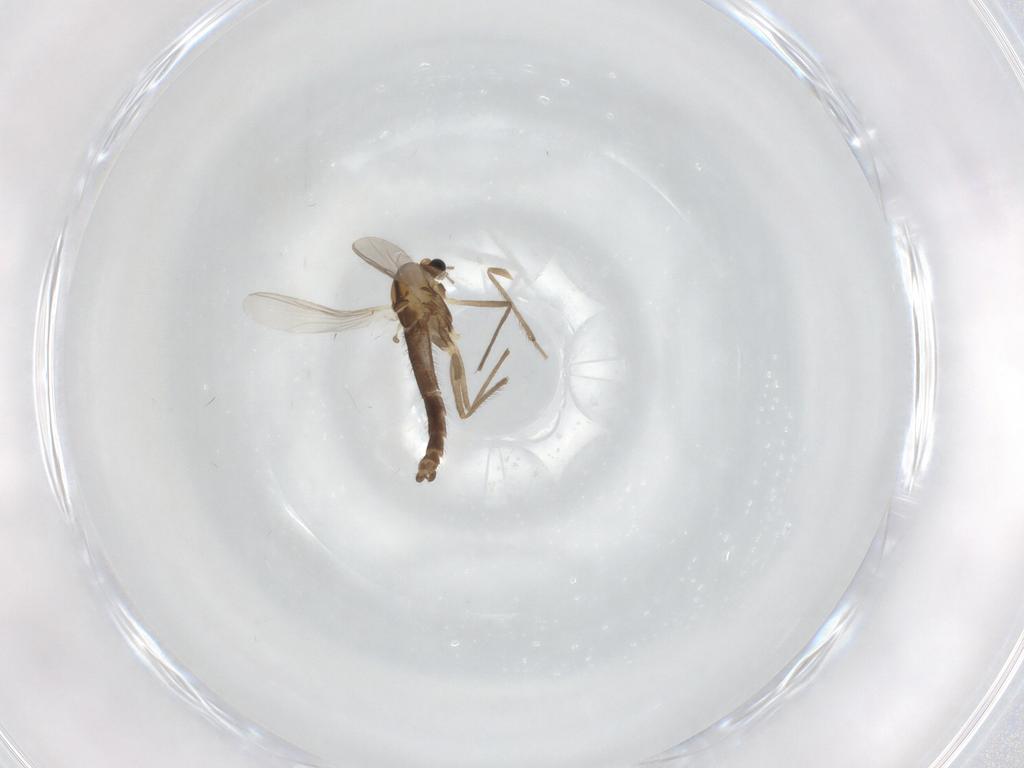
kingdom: Animalia
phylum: Arthropoda
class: Insecta
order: Diptera
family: Chironomidae
